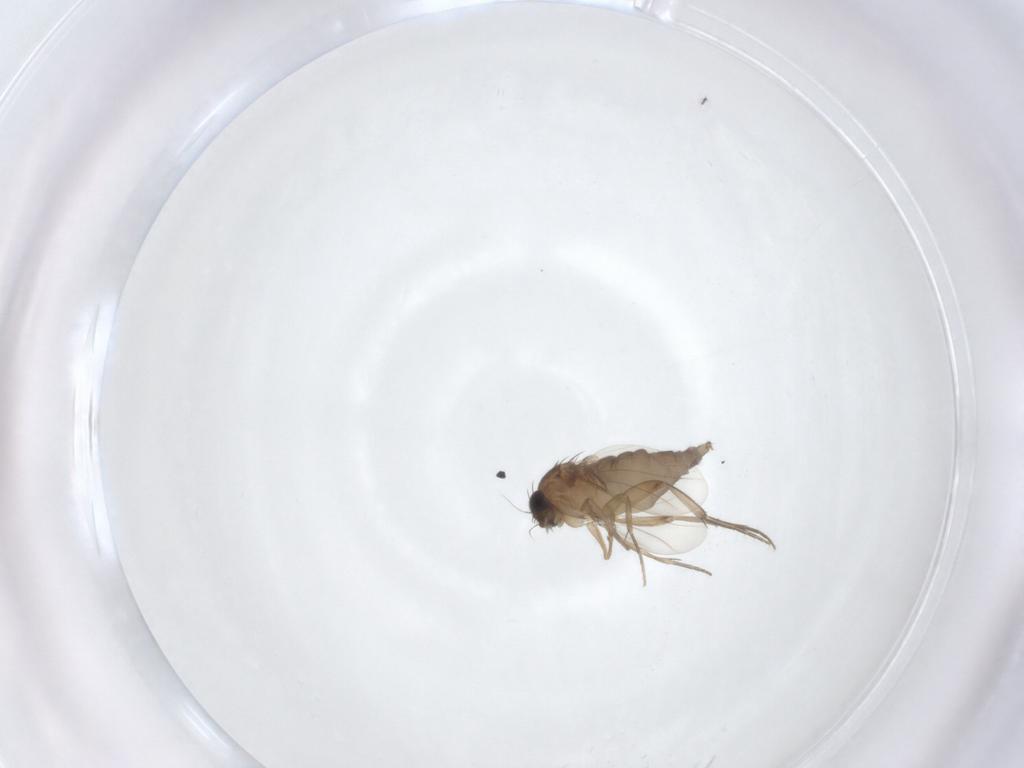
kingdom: Animalia
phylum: Arthropoda
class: Insecta
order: Diptera
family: Phoridae
